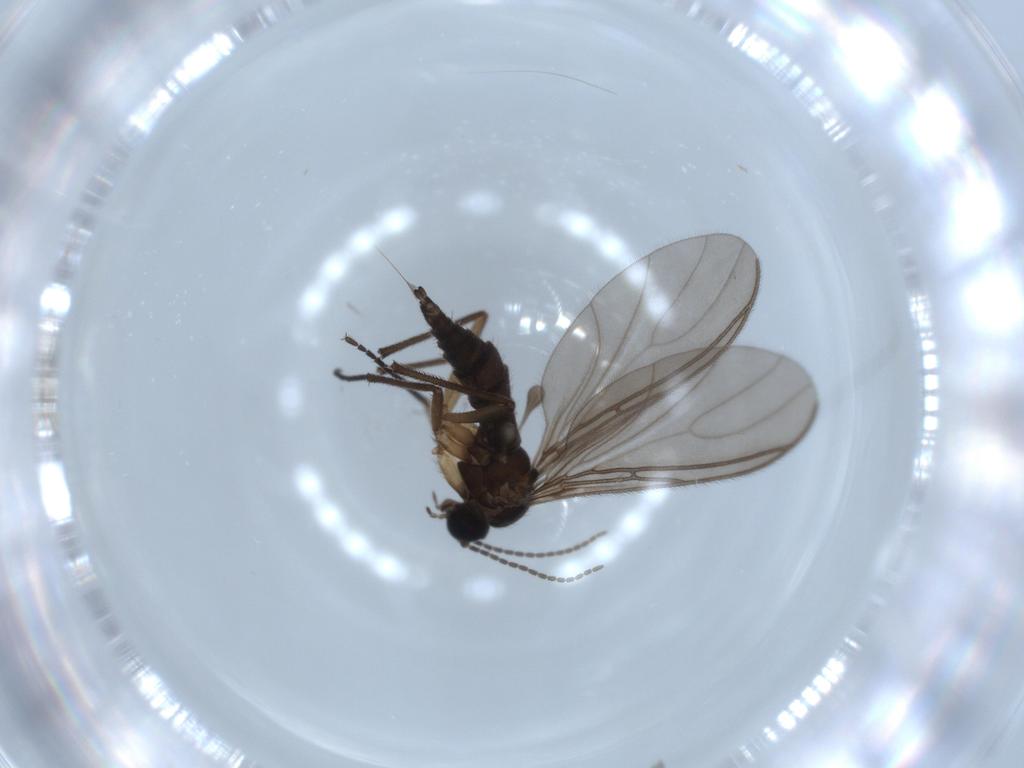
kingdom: Animalia
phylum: Arthropoda
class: Insecta
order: Diptera
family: Sciaridae
